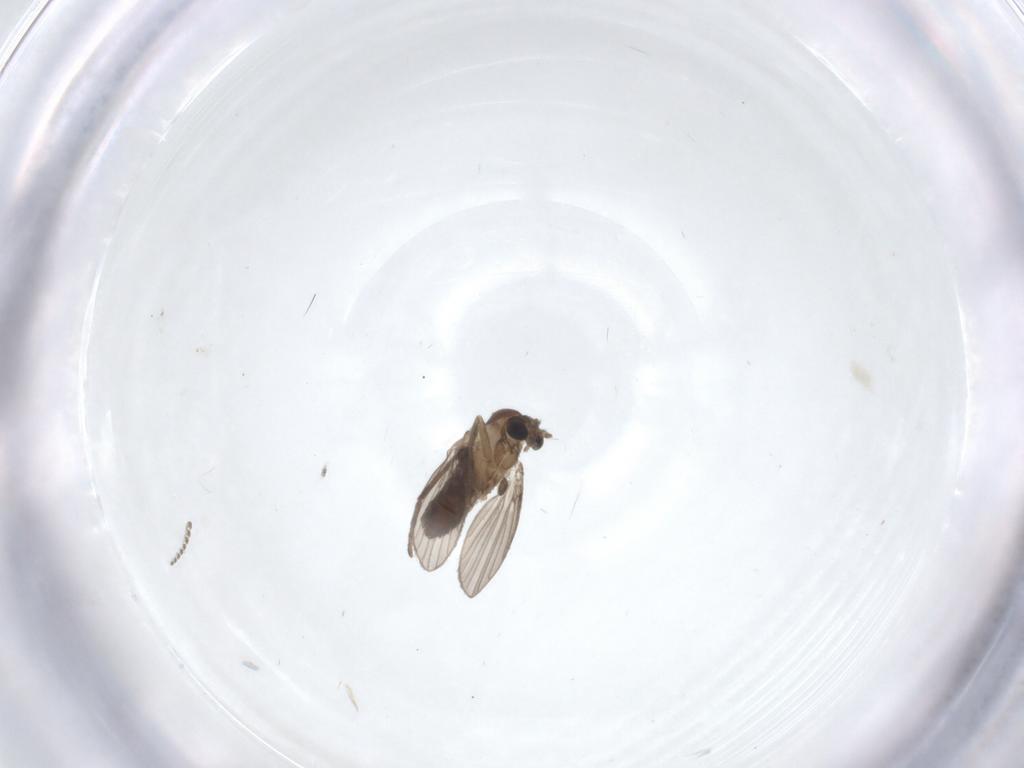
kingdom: Animalia
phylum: Arthropoda
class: Insecta
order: Diptera
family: Psychodidae
